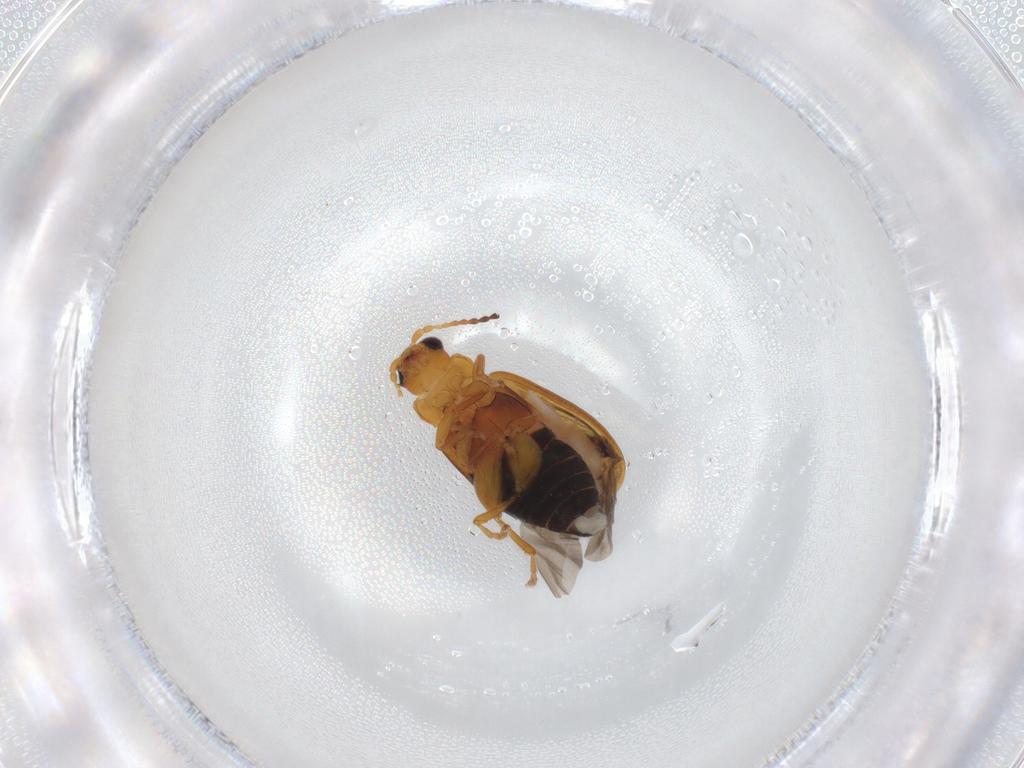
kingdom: Animalia
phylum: Arthropoda
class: Insecta
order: Coleoptera
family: Chrysomelidae
